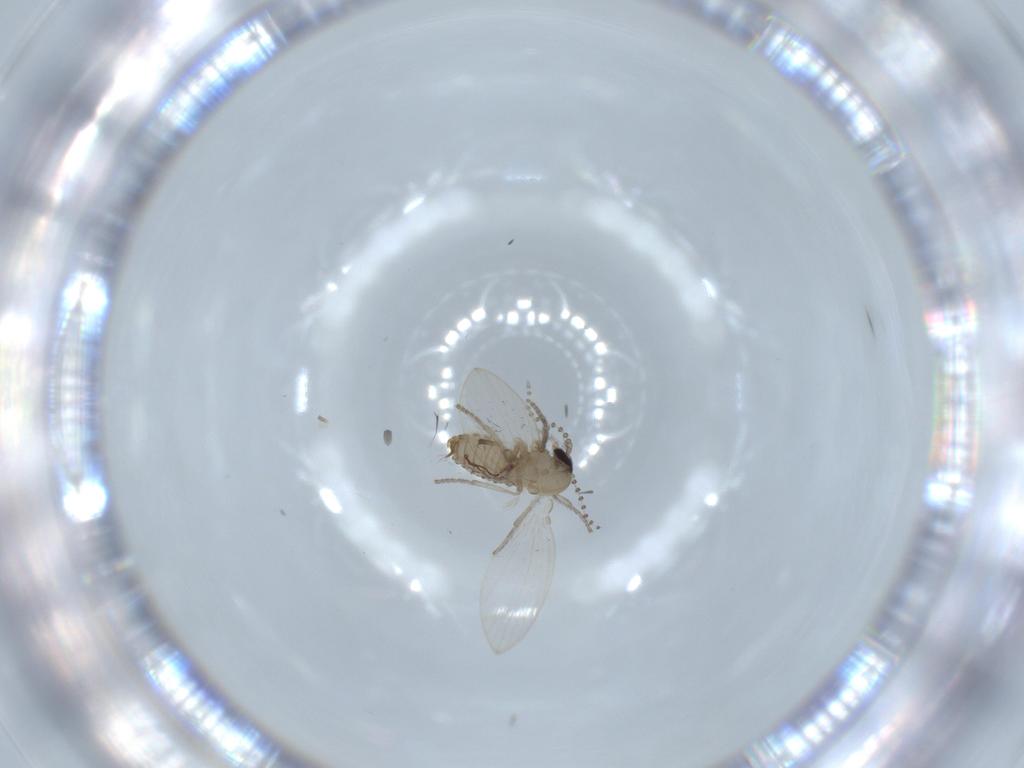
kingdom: Animalia
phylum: Arthropoda
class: Insecta
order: Diptera
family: Psychodidae
